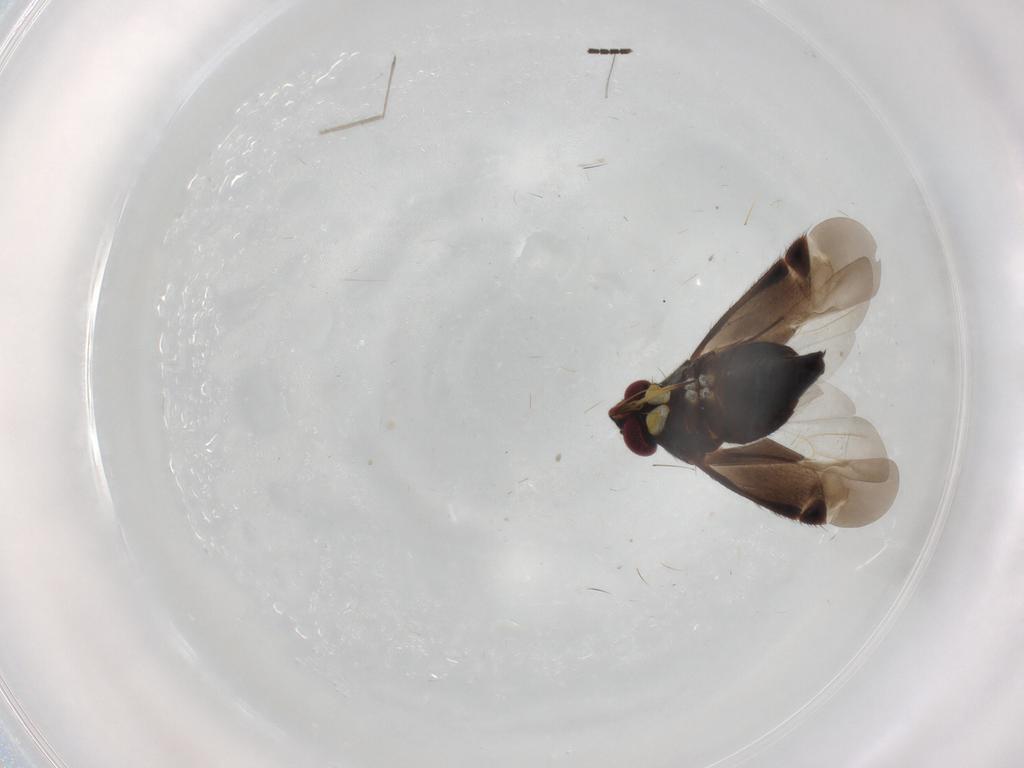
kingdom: Animalia
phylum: Arthropoda
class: Insecta
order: Hemiptera
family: Miridae
